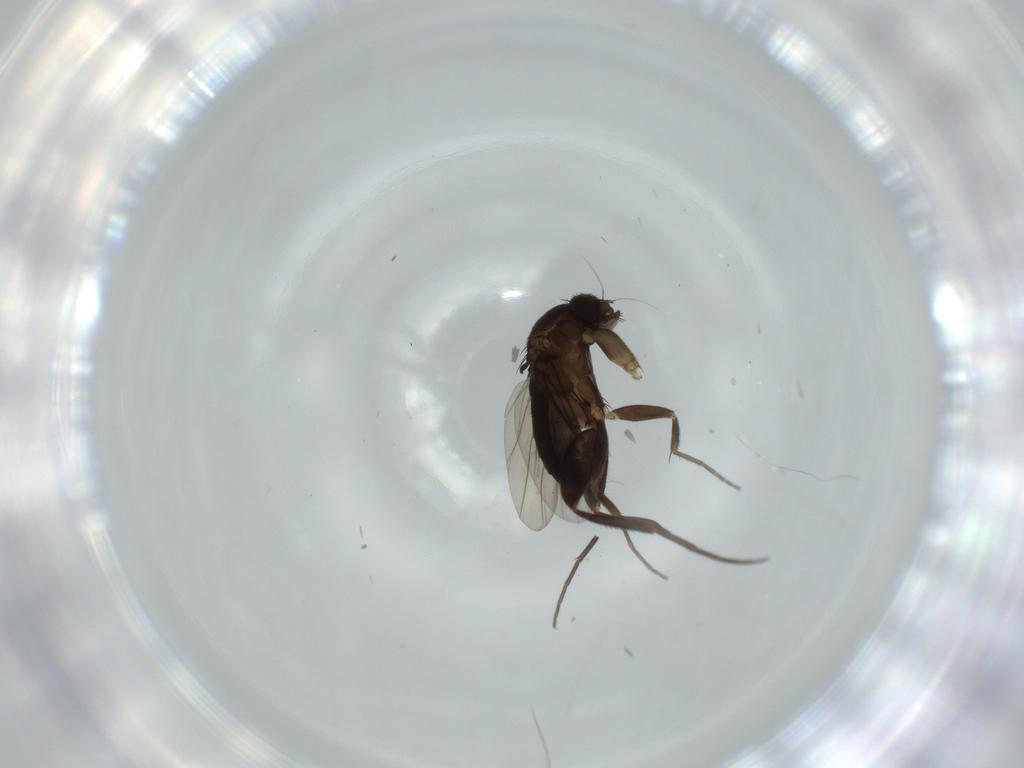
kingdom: Animalia
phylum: Arthropoda
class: Insecta
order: Diptera
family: Phoridae
